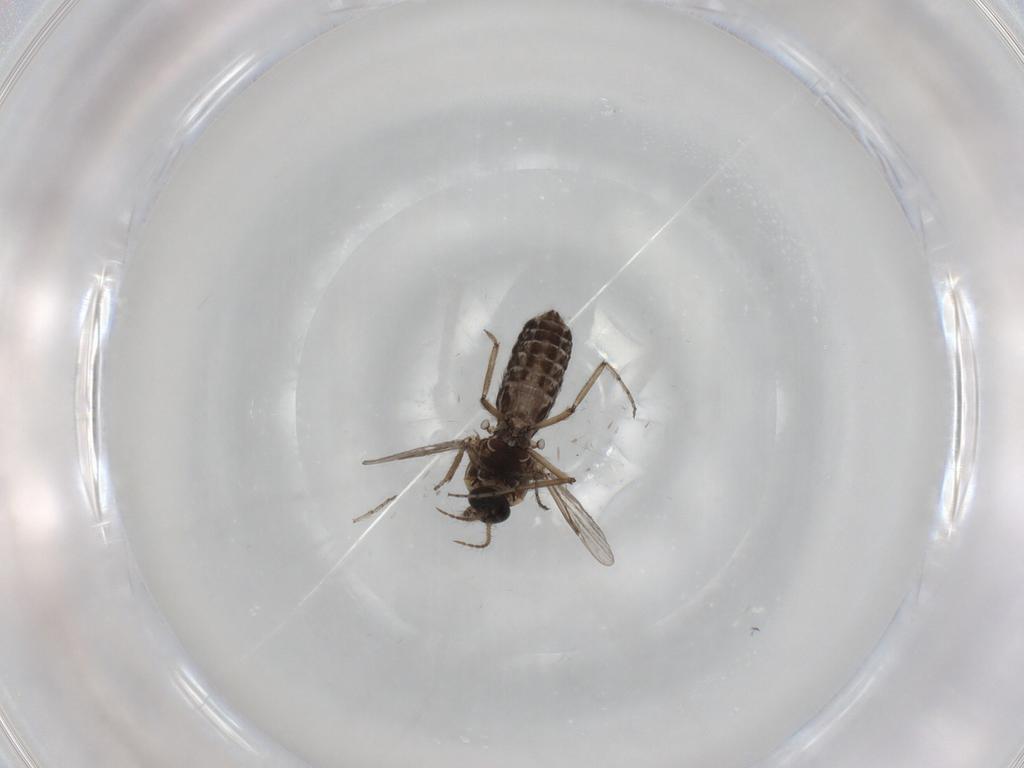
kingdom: Animalia
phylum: Arthropoda
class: Insecta
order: Diptera
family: Ceratopogonidae
